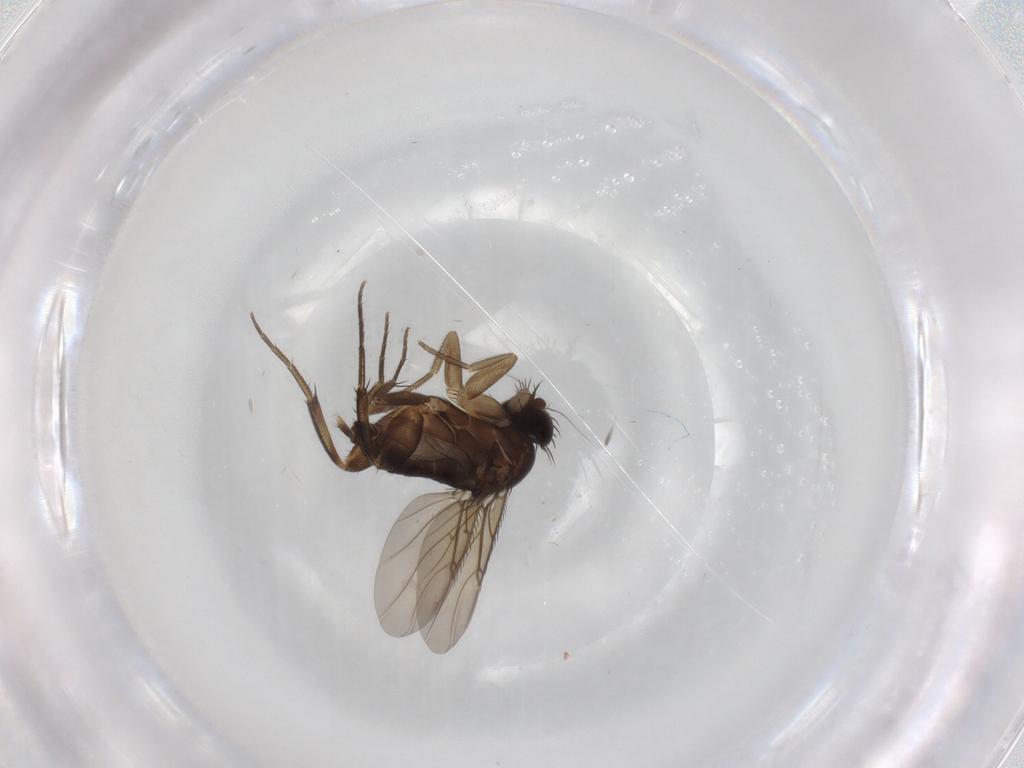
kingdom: Animalia
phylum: Arthropoda
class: Insecta
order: Diptera
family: Phoridae
